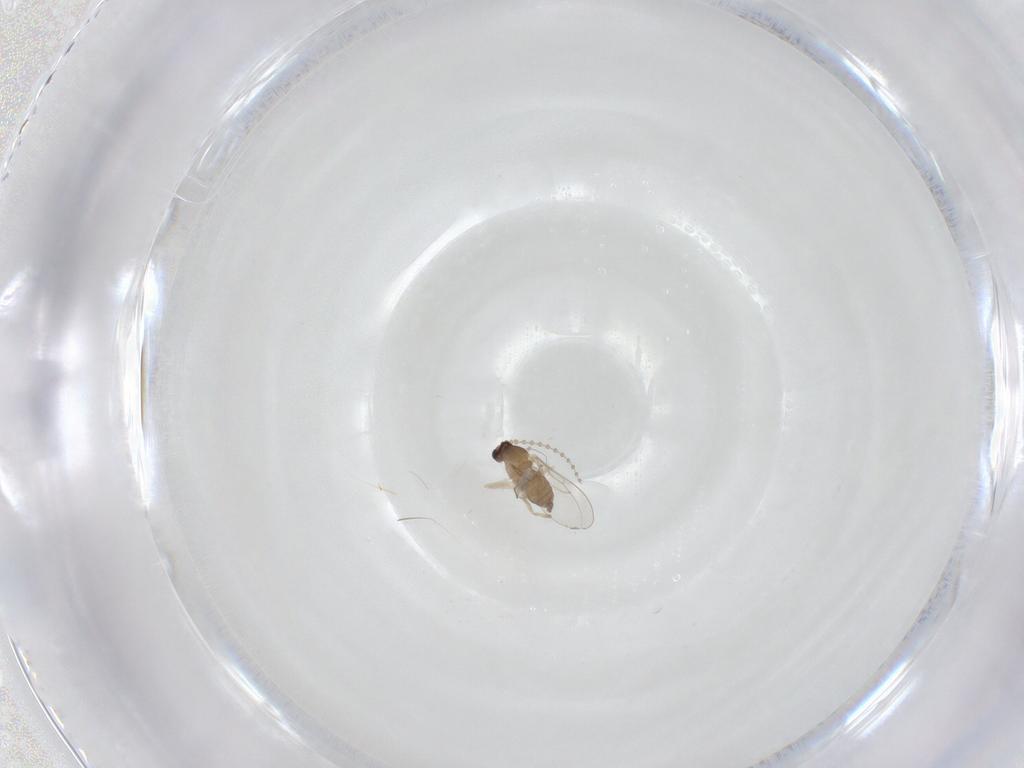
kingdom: Animalia
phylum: Arthropoda
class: Insecta
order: Diptera
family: Cecidomyiidae
